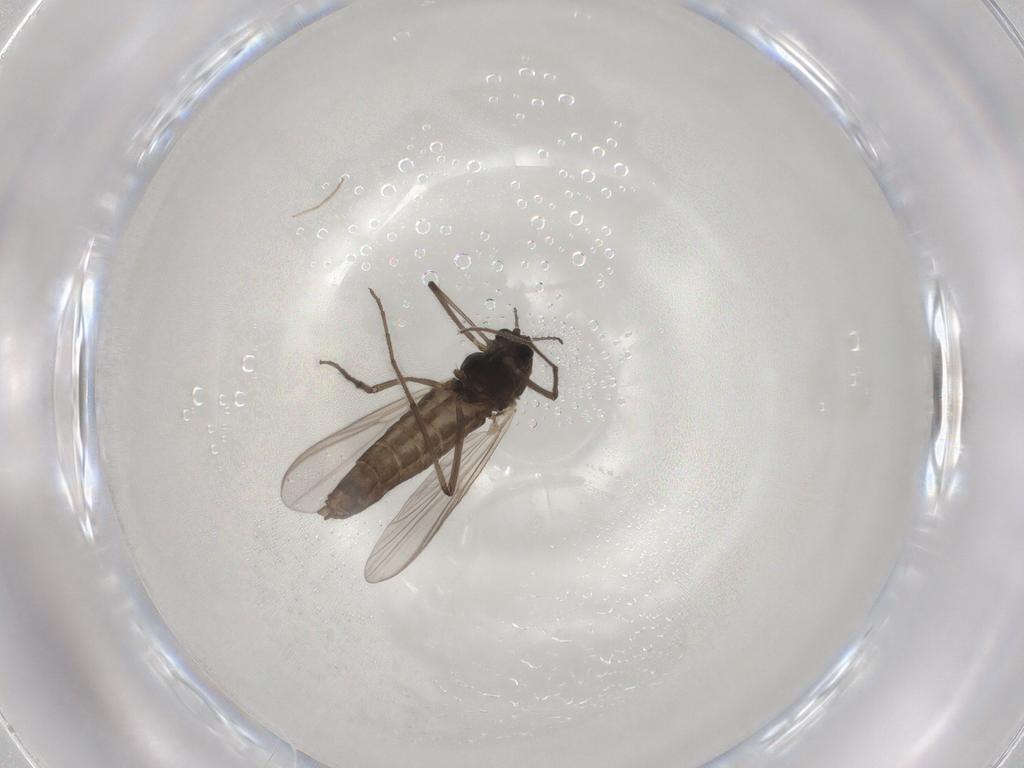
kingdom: Animalia
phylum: Arthropoda
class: Insecta
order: Diptera
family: Chironomidae
